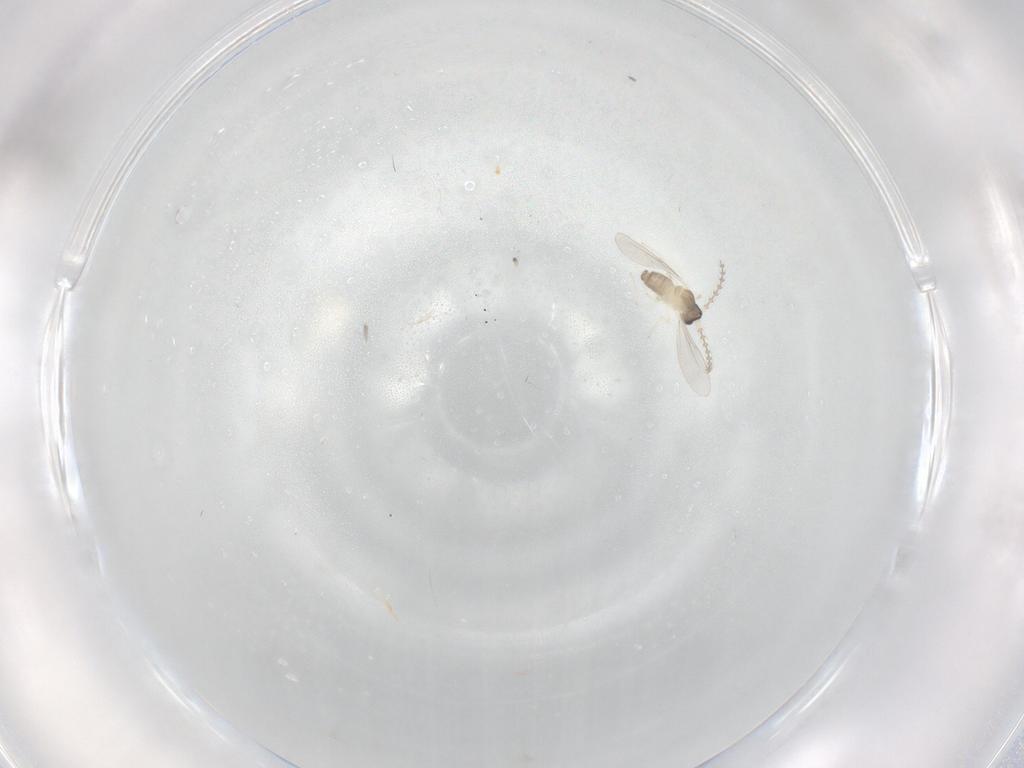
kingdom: Animalia
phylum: Arthropoda
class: Insecta
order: Diptera
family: Cecidomyiidae
